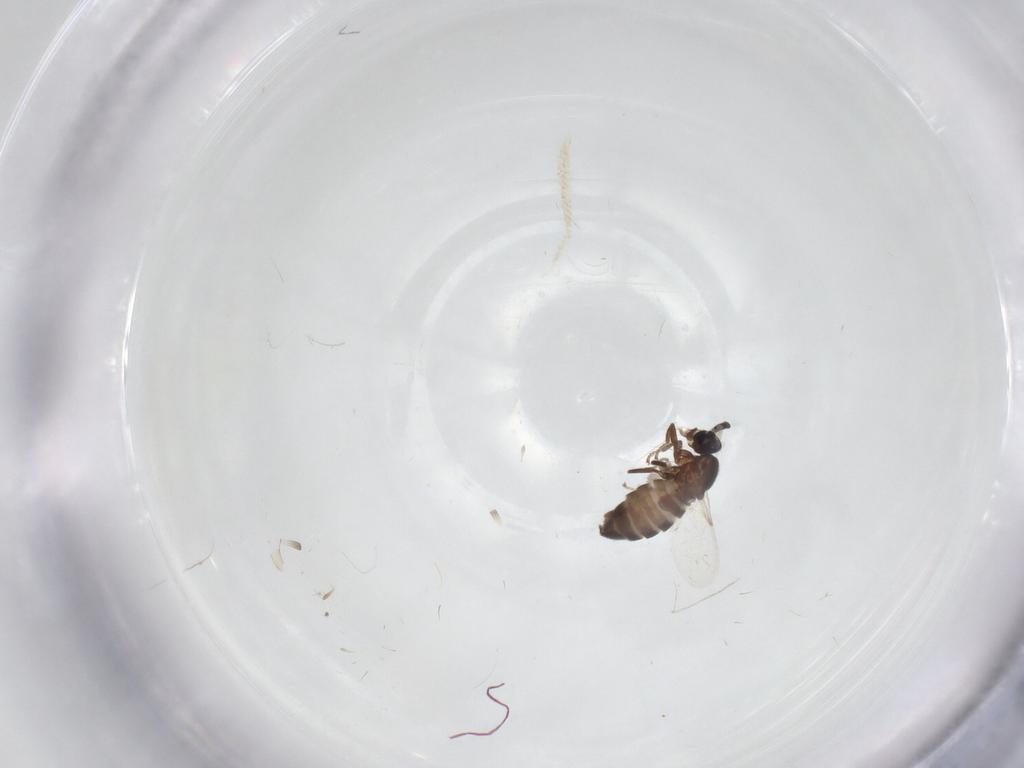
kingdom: Animalia
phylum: Arthropoda
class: Insecta
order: Diptera
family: Scatopsidae
